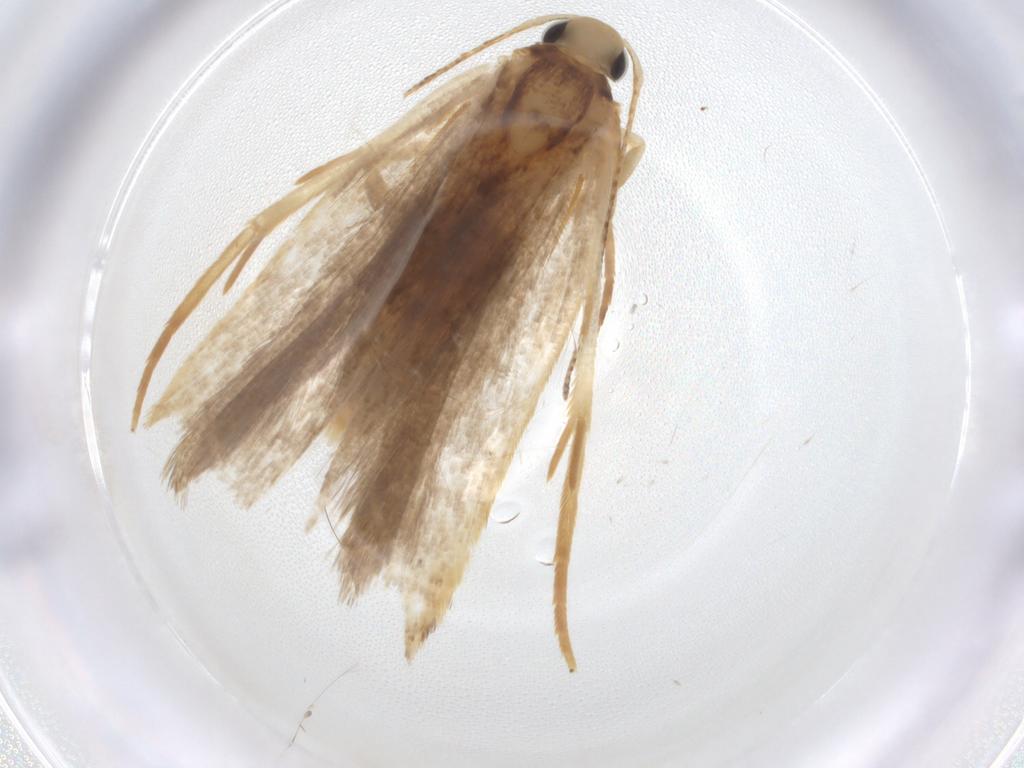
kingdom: Animalia
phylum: Arthropoda
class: Insecta
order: Lepidoptera
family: Gelechiidae
